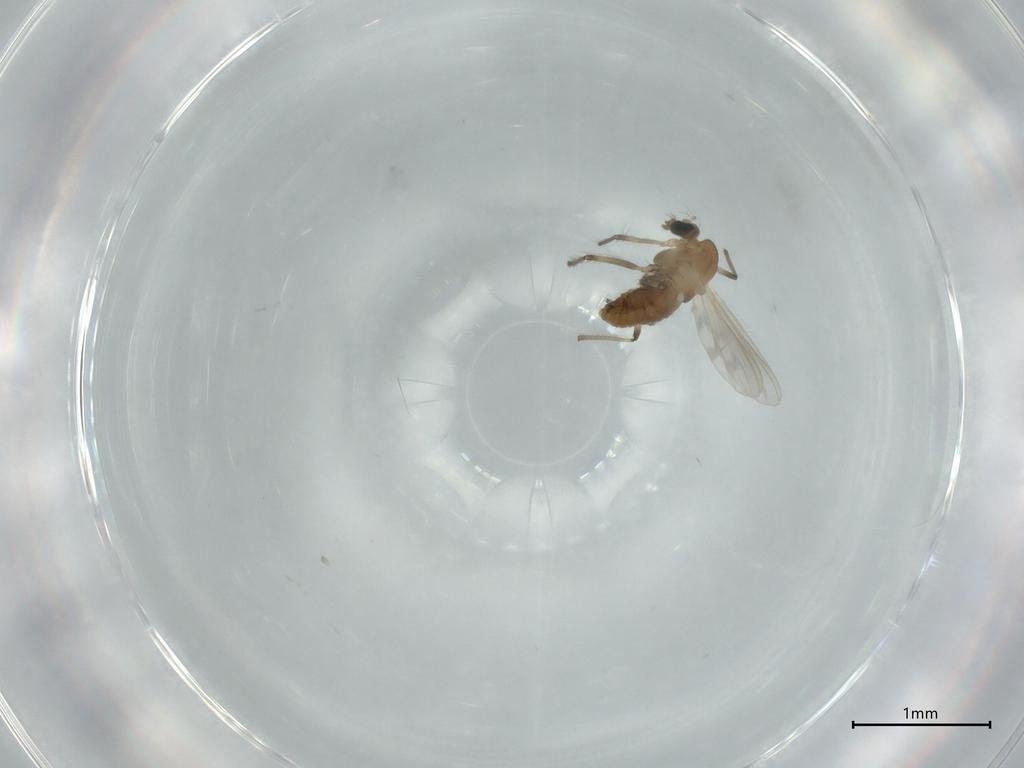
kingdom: Animalia
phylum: Arthropoda
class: Insecta
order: Diptera
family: Chironomidae
